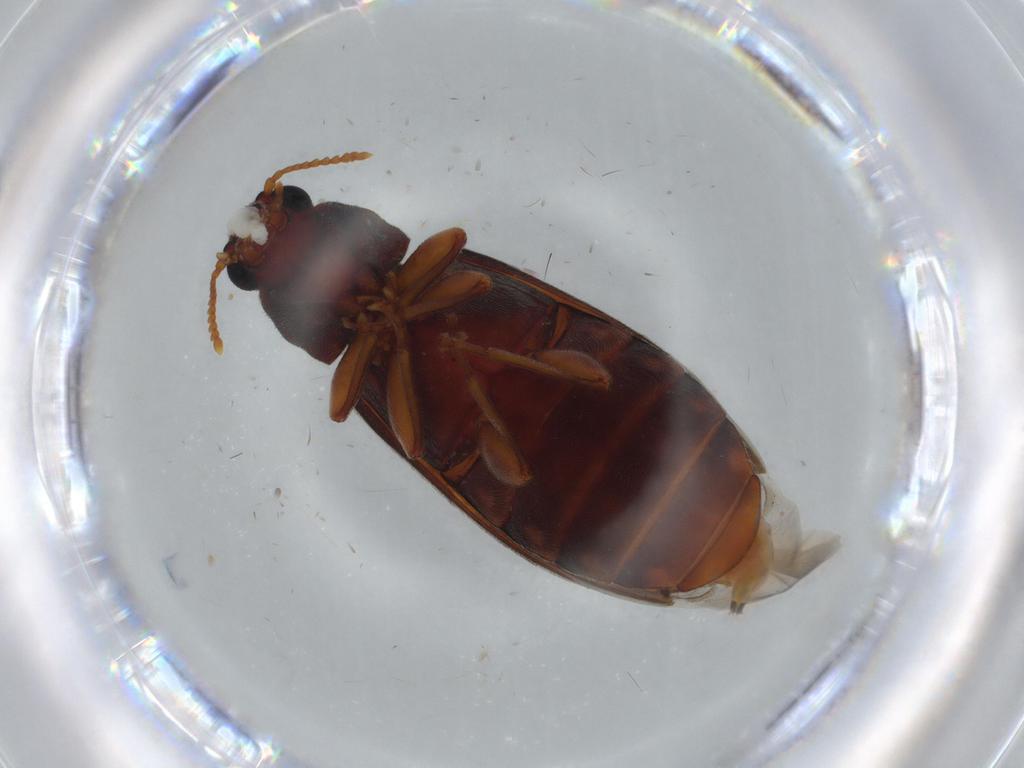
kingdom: Animalia
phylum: Arthropoda
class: Insecta
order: Coleoptera
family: Mycteridae
